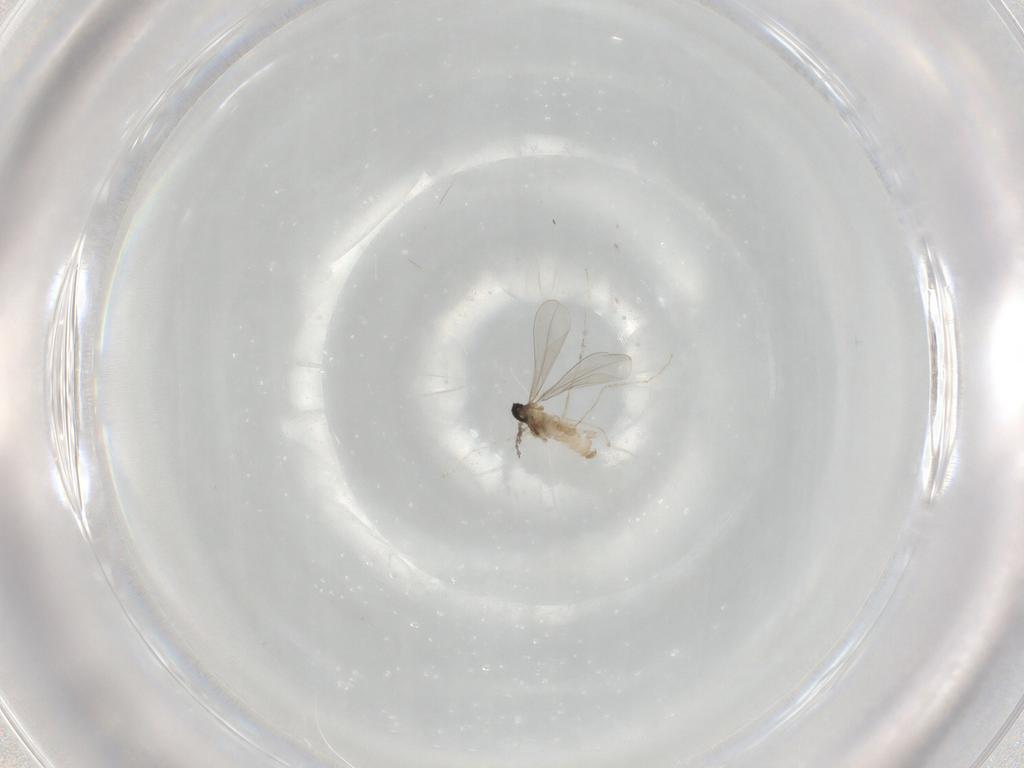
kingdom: Animalia
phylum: Arthropoda
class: Insecta
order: Diptera
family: Cecidomyiidae
